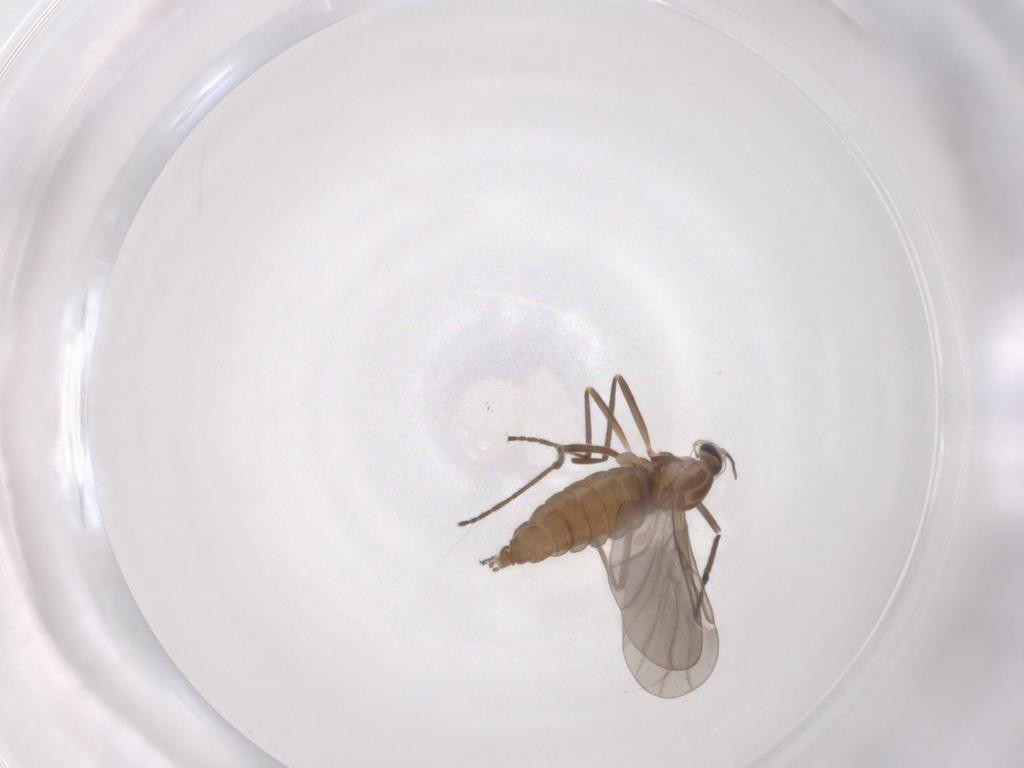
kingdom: Animalia
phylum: Arthropoda
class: Insecta
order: Diptera
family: Cecidomyiidae
